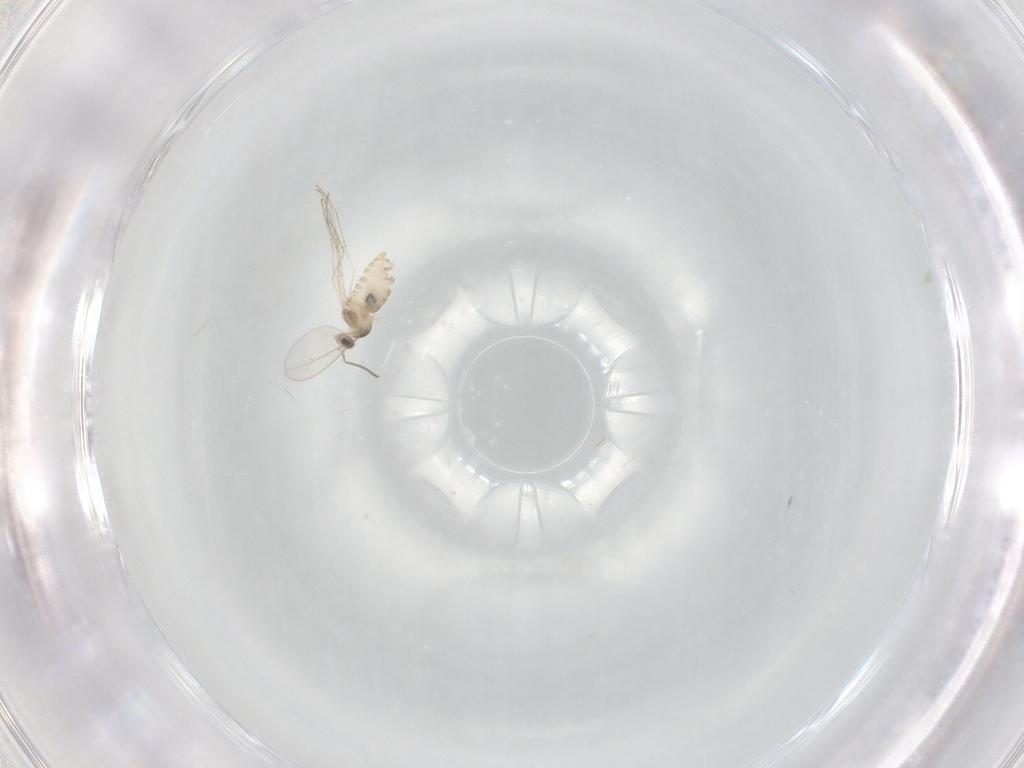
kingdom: Animalia
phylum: Arthropoda
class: Insecta
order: Diptera
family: Cecidomyiidae
